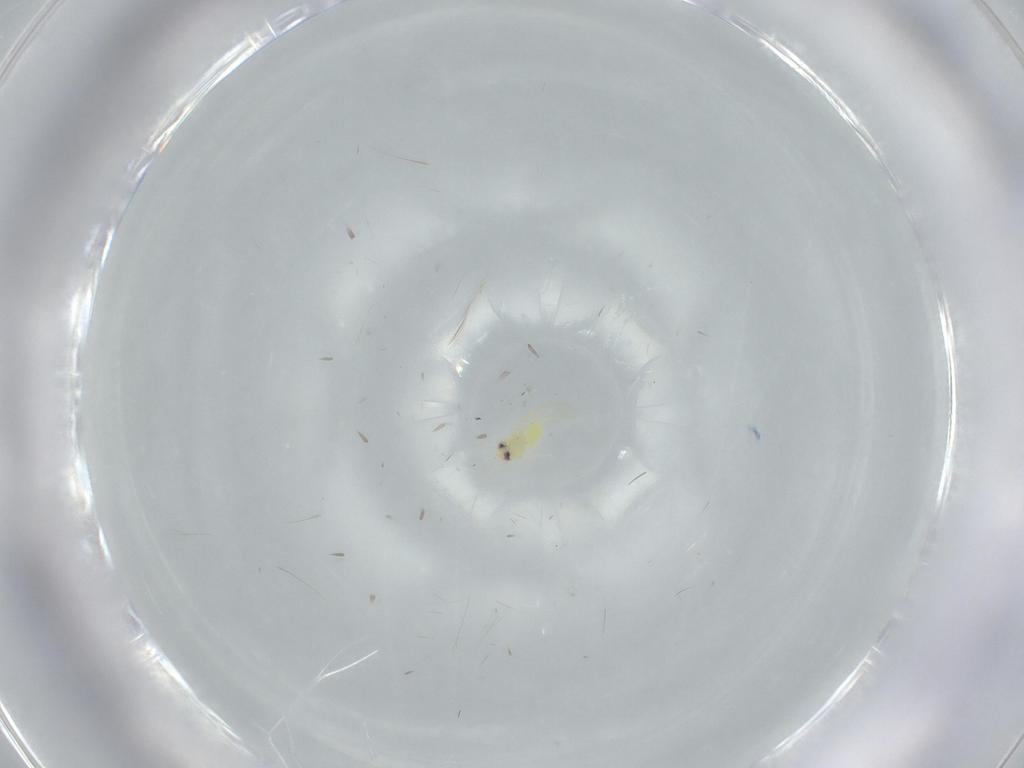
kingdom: Animalia
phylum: Arthropoda
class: Insecta
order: Hemiptera
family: Aleyrodidae
